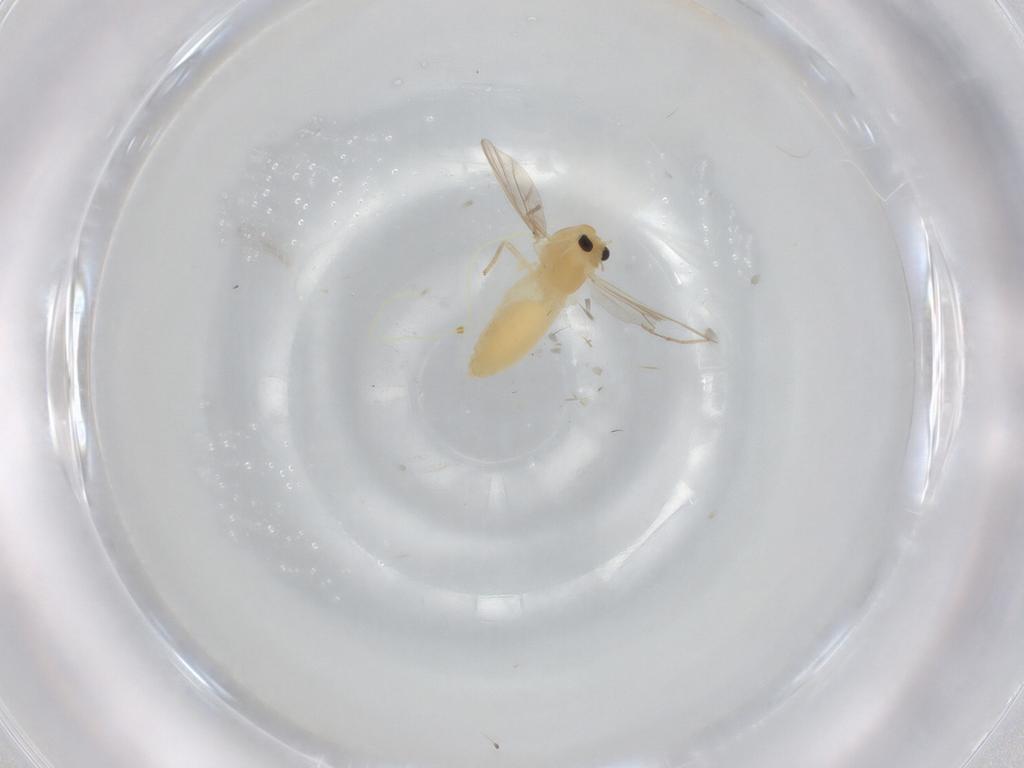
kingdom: Animalia
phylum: Arthropoda
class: Insecta
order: Diptera
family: Chironomidae
